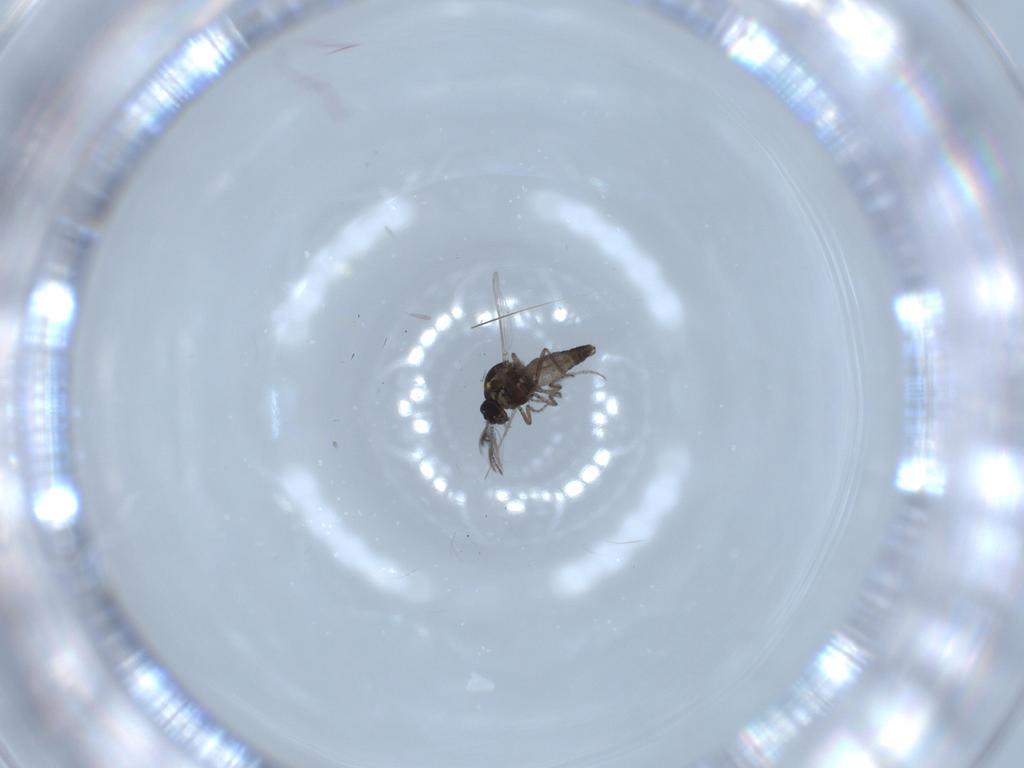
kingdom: Animalia
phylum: Arthropoda
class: Insecta
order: Diptera
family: Ceratopogonidae
